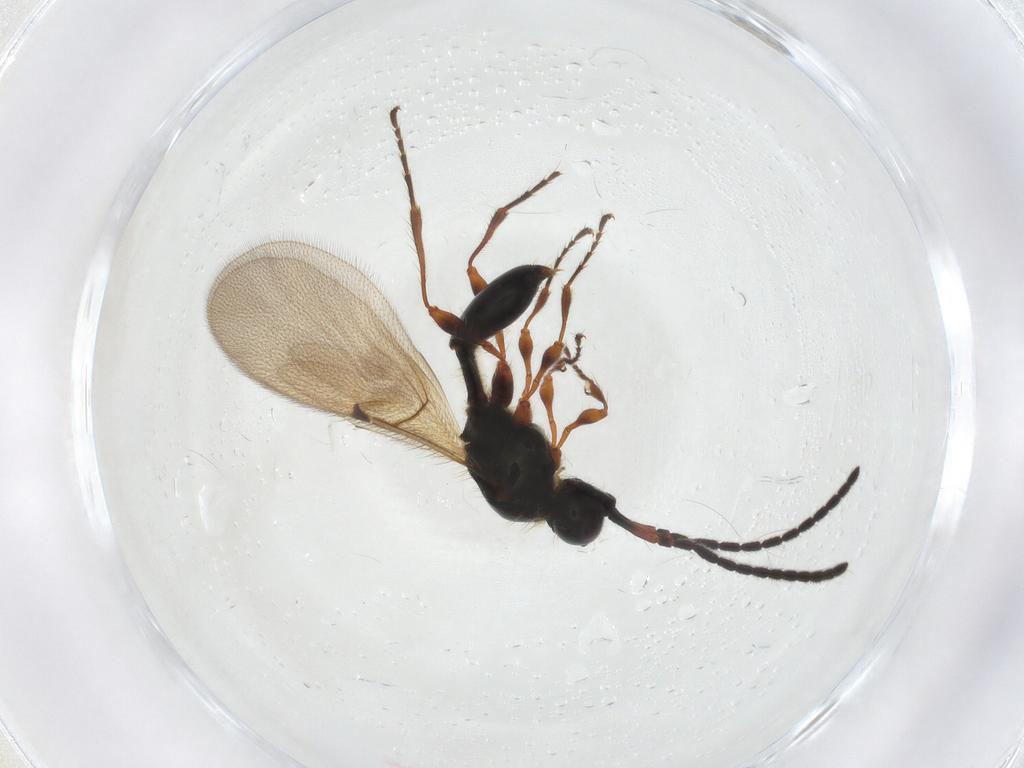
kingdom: Animalia
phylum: Arthropoda
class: Insecta
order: Hymenoptera
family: Diapriidae
